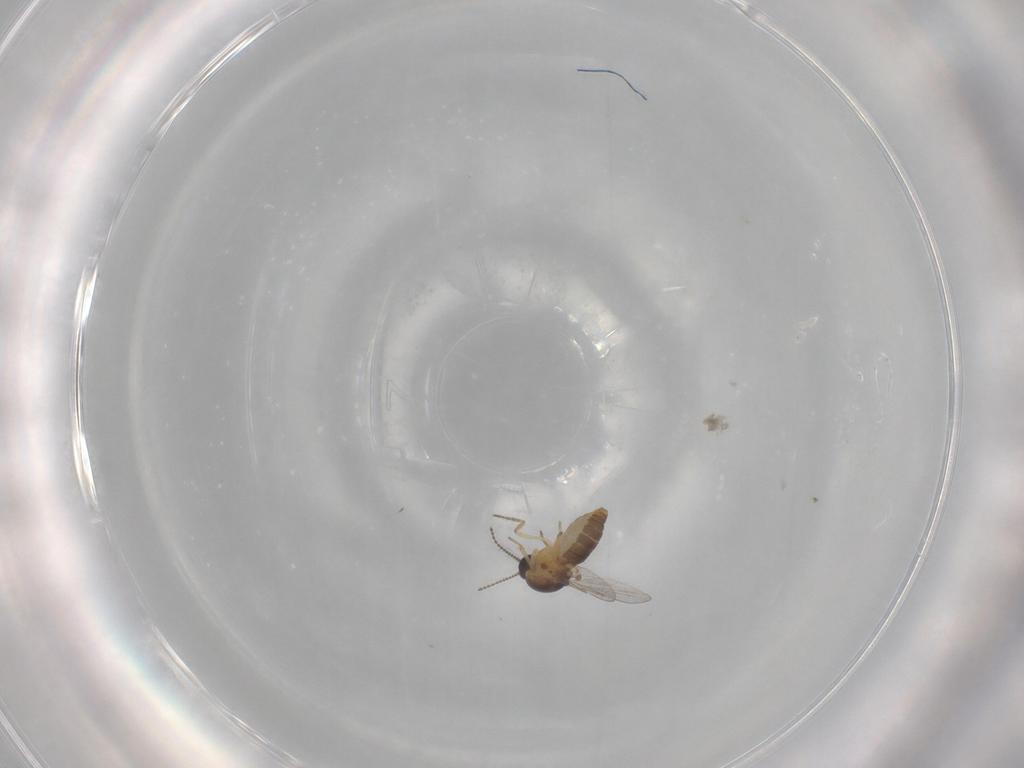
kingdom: Animalia
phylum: Arthropoda
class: Insecta
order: Diptera
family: Ceratopogonidae
